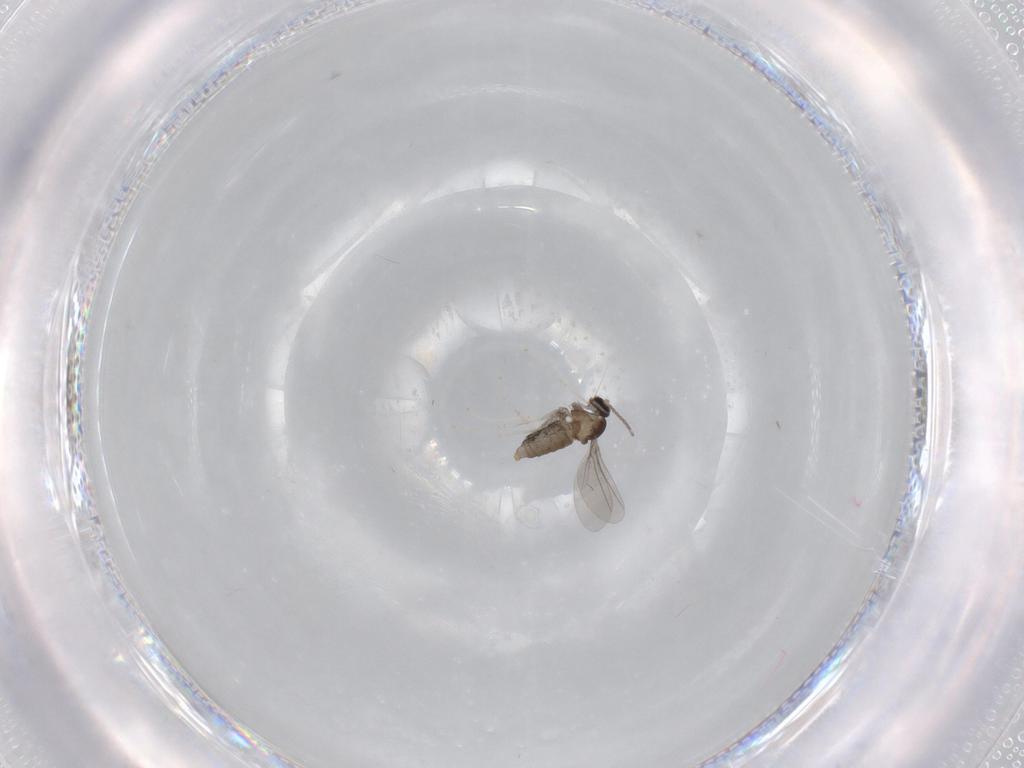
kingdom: Animalia
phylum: Arthropoda
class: Insecta
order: Diptera
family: Cecidomyiidae
